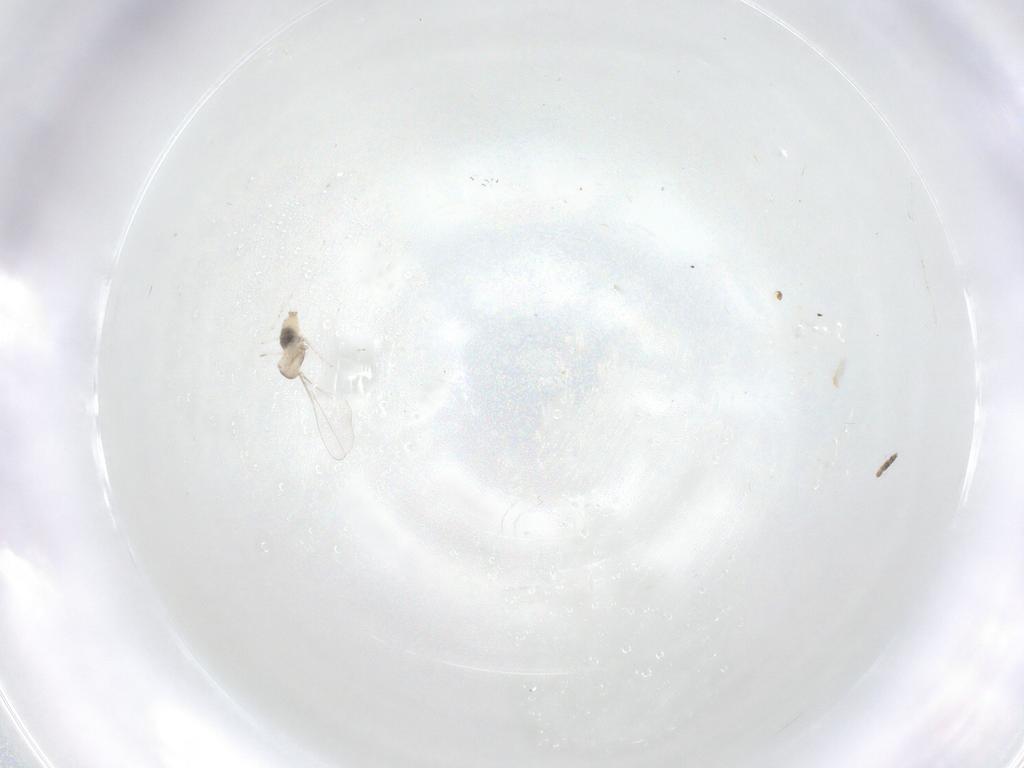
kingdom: Animalia
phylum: Arthropoda
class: Insecta
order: Diptera
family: Cecidomyiidae
